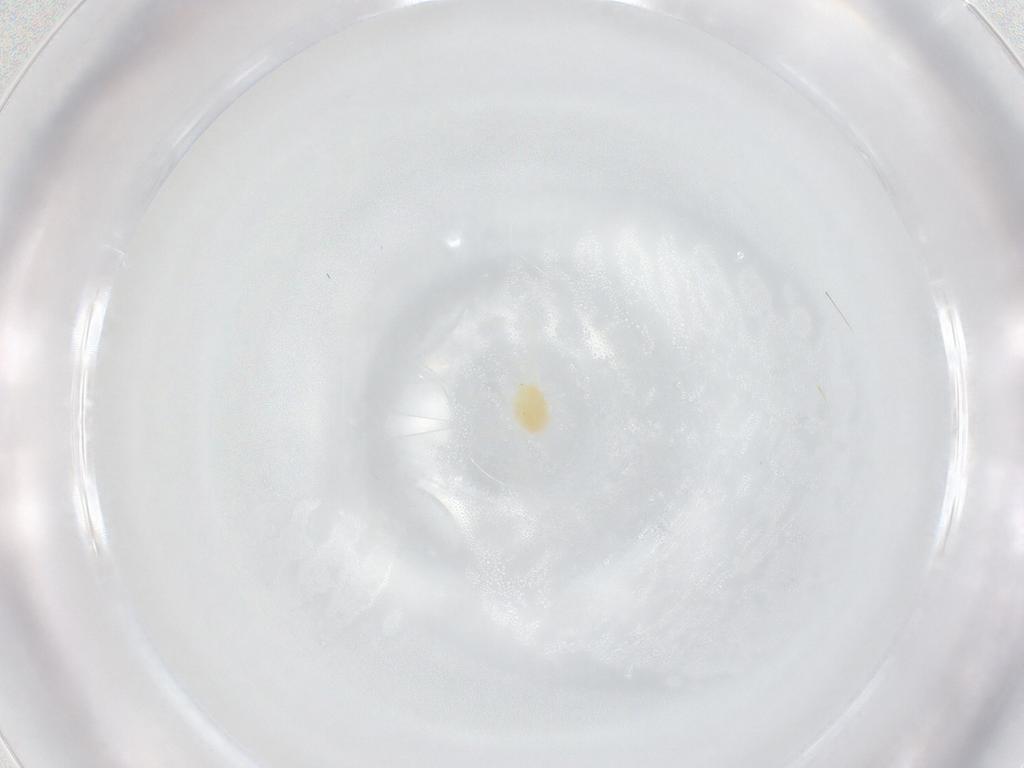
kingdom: Animalia
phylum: Arthropoda
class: Arachnida
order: Trombidiformes
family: Tetranychidae
